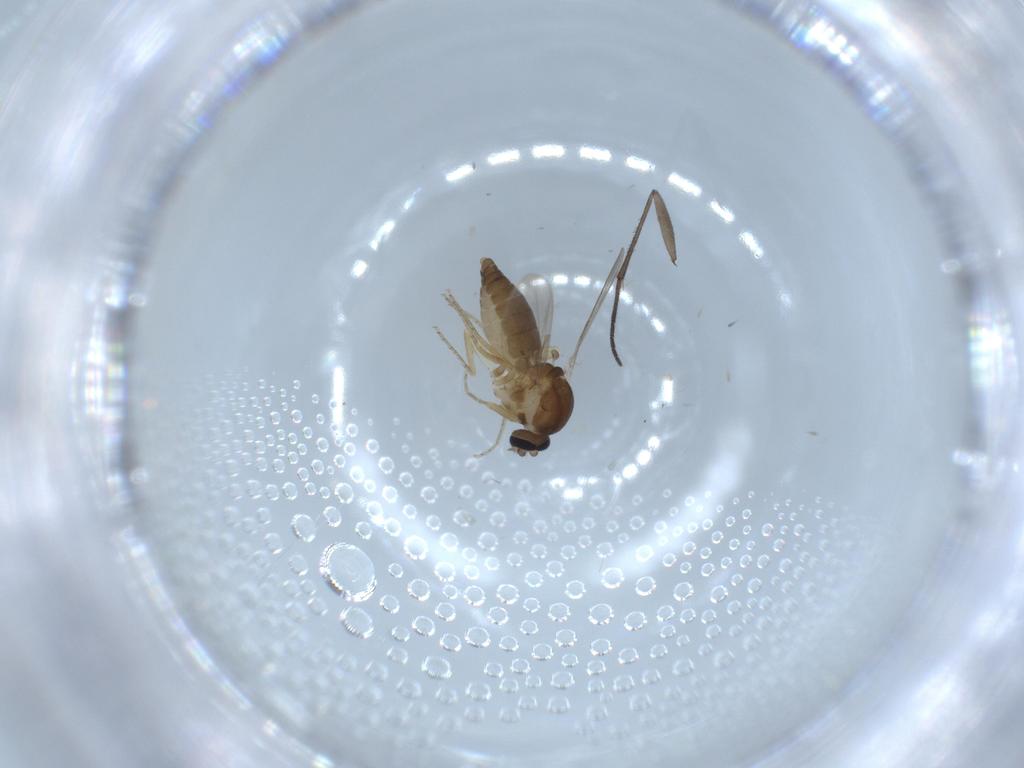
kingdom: Animalia
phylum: Arthropoda
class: Insecta
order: Diptera
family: Ceratopogonidae
